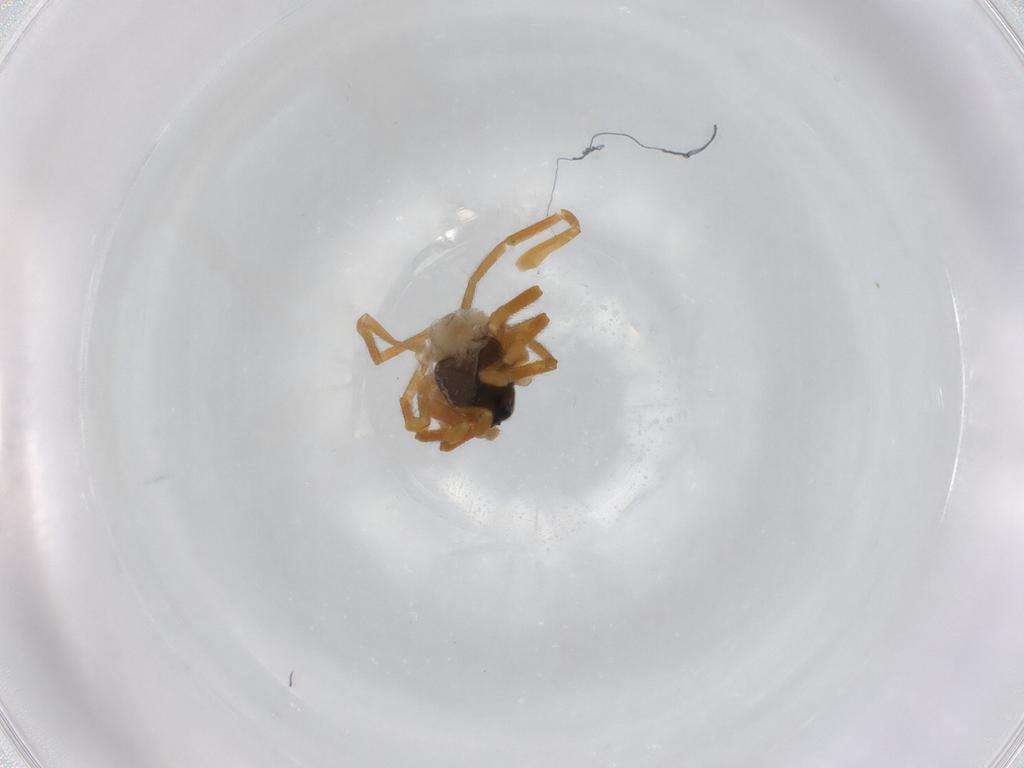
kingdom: Animalia
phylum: Arthropoda
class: Arachnida
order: Araneae
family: Linyphiidae
